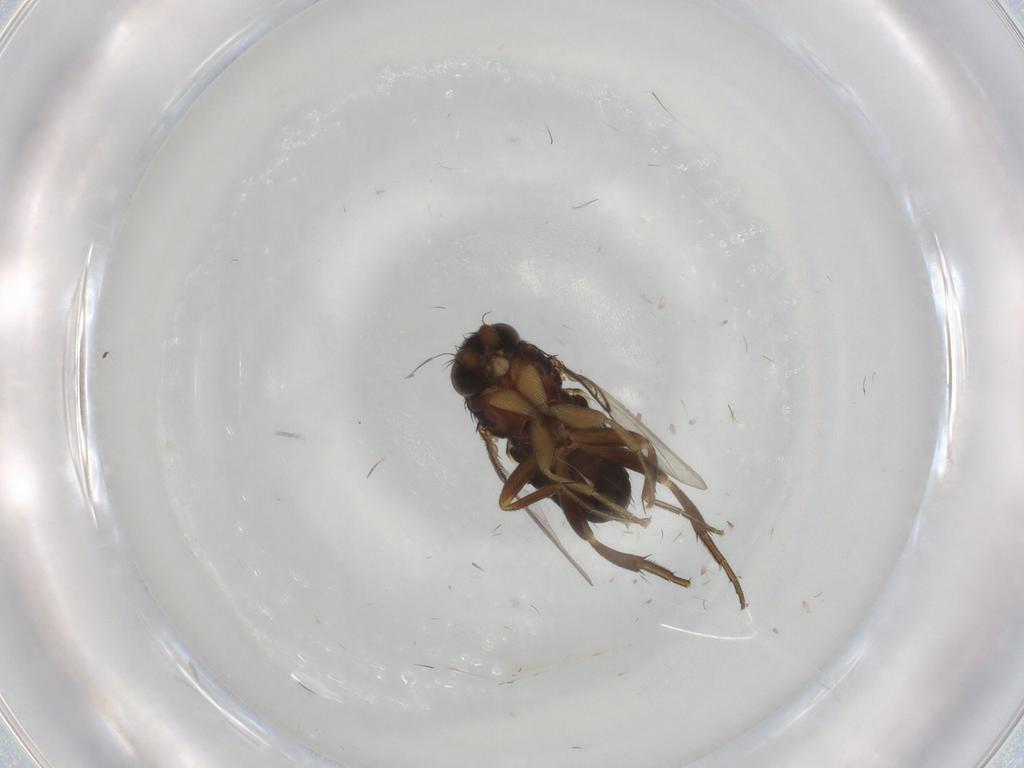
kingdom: Animalia
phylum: Arthropoda
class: Insecta
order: Diptera
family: Phoridae
